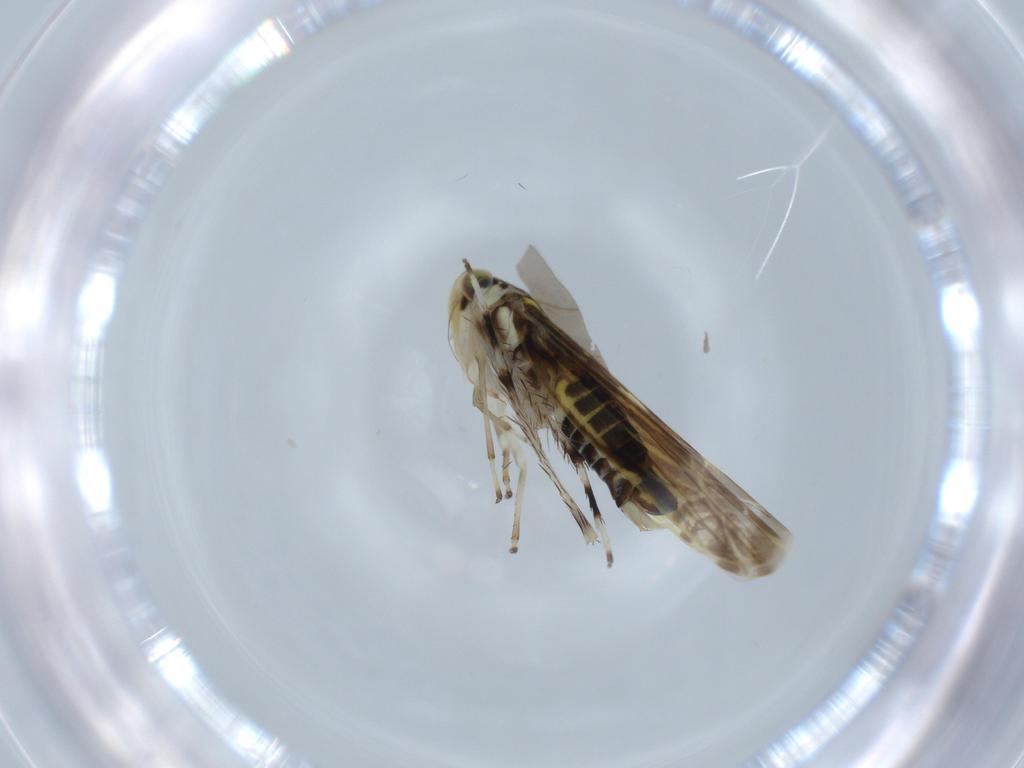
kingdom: Animalia
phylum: Arthropoda
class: Insecta
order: Hemiptera
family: Cicadellidae
